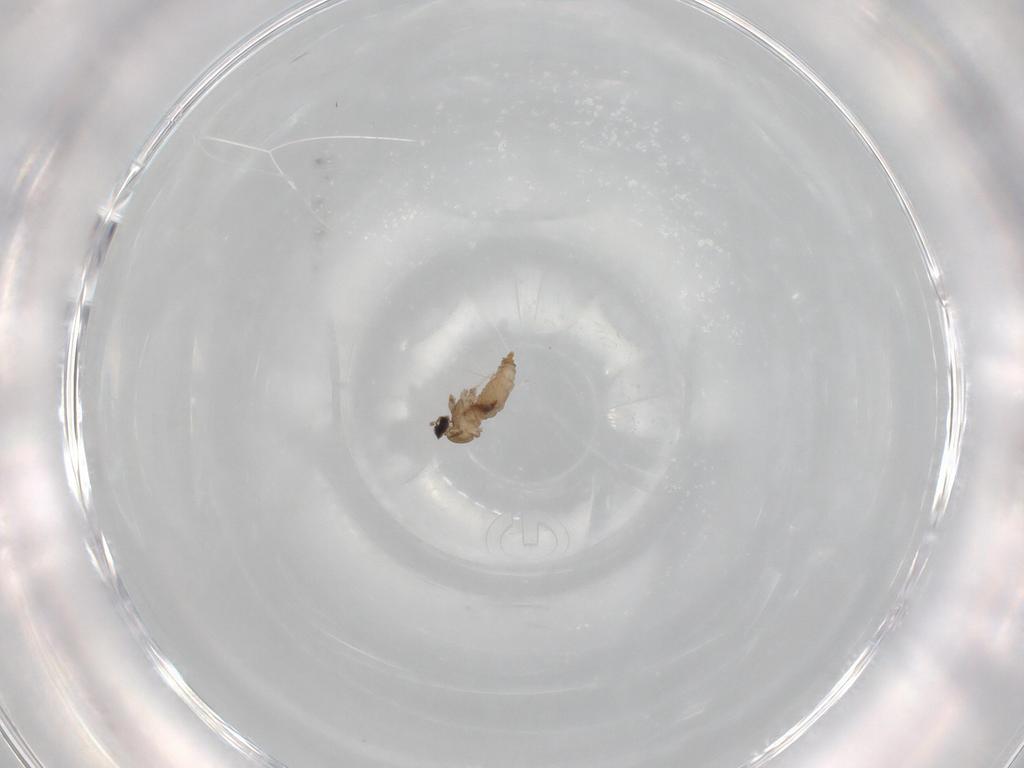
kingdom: Animalia
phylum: Arthropoda
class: Insecta
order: Diptera
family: Cecidomyiidae
